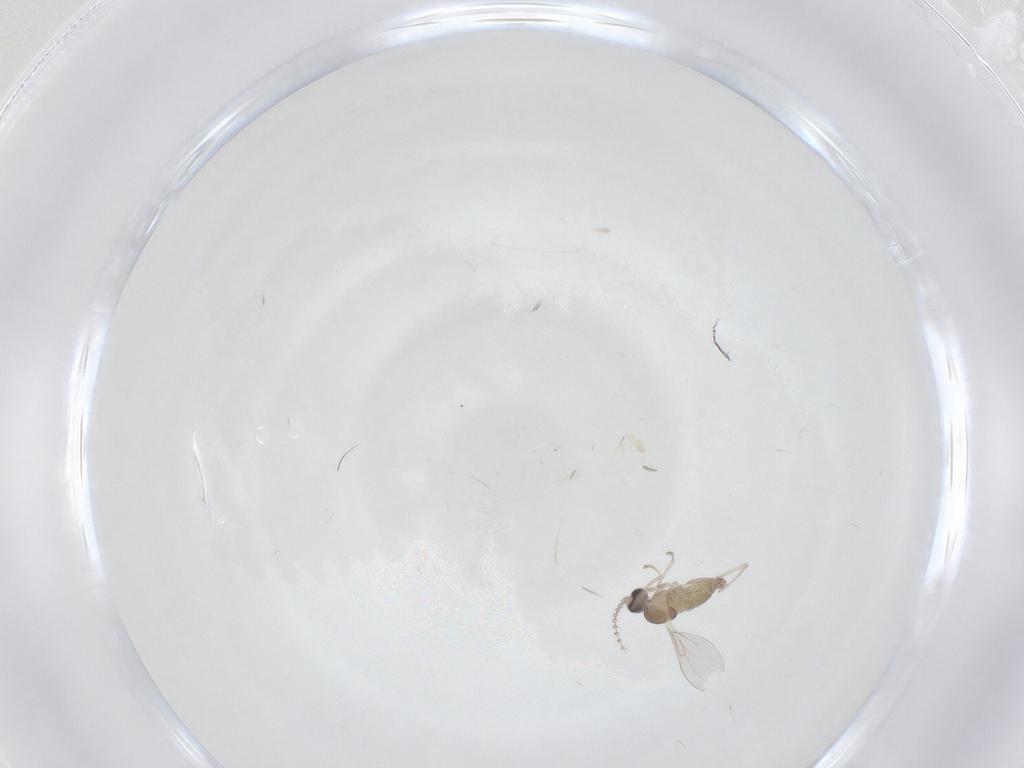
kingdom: Animalia
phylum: Arthropoda
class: Insecta
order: Diptera
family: Cecidomyiidae
